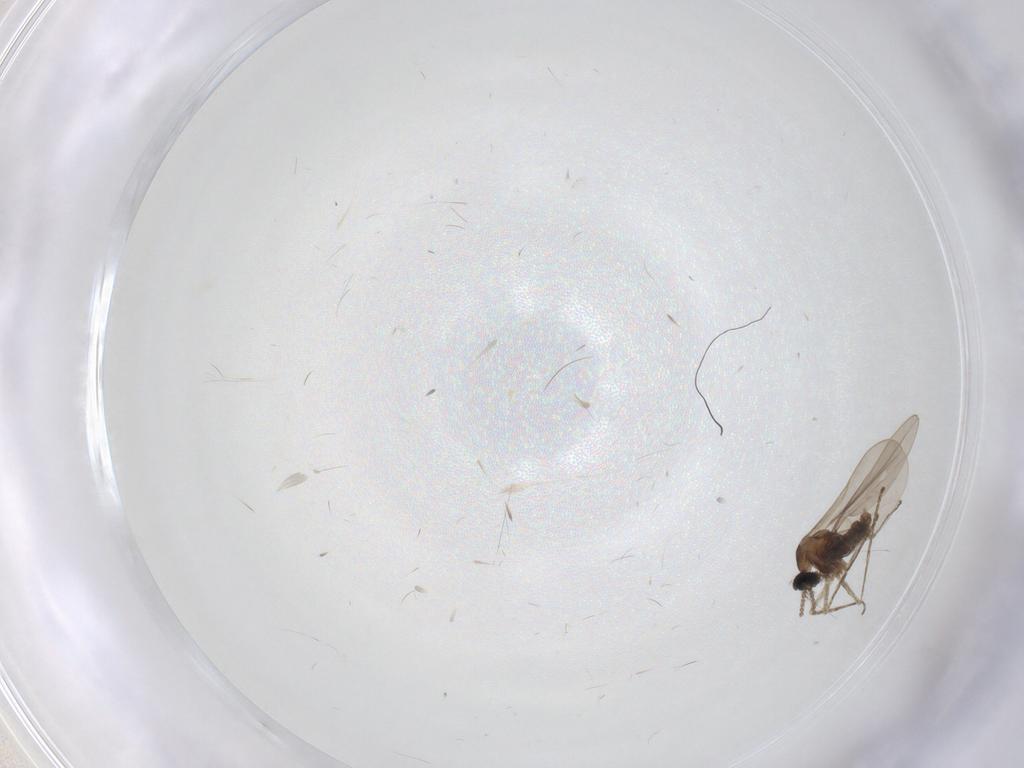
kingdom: Animalia
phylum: Arthropoda
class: Insecta
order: Diptera
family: Cecidomyiidae
